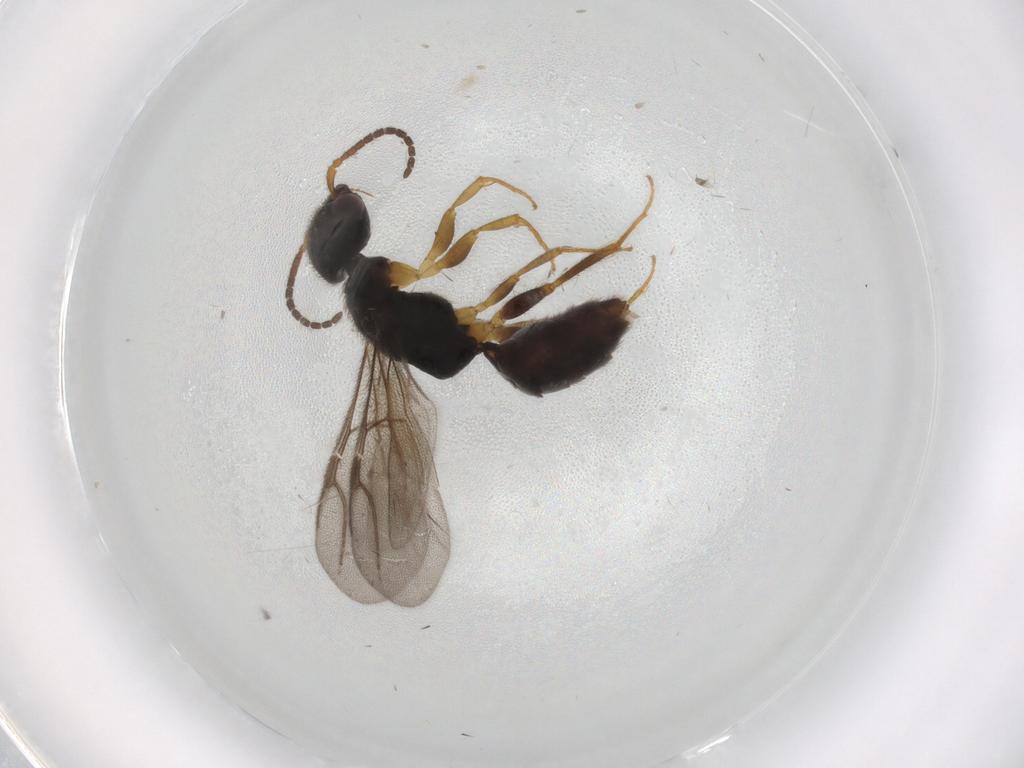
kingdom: Animalia
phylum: Arthropoda
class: Insecta
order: Hymenoptera
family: Bethylidae
